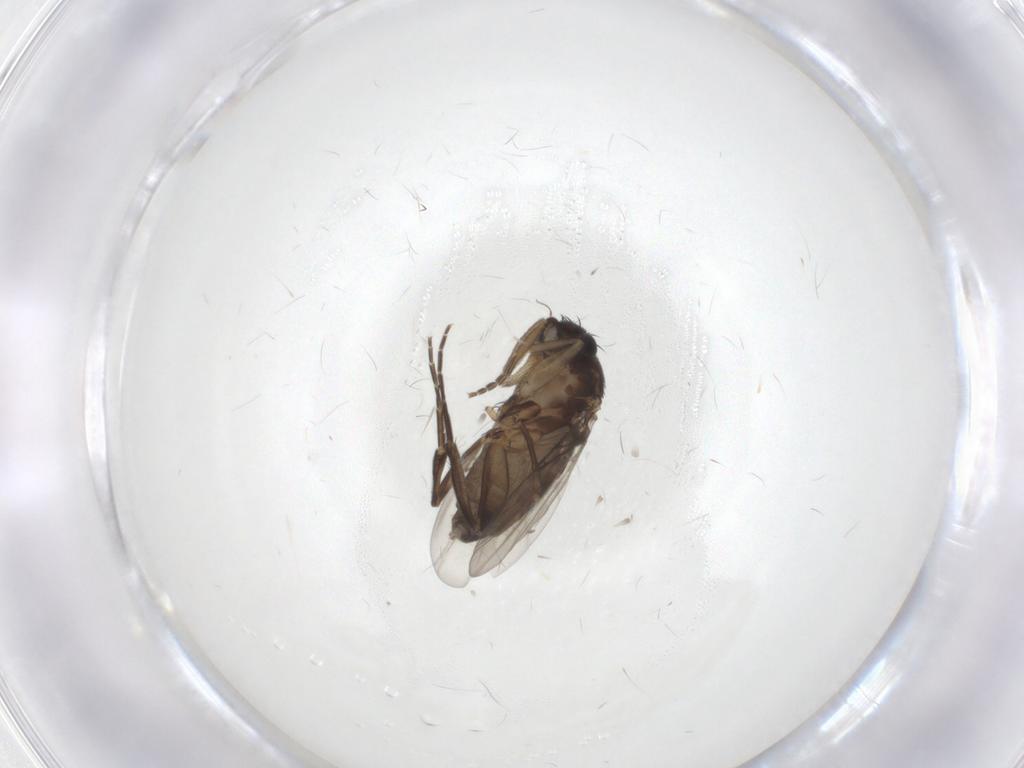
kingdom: Animalia
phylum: Arthropoda
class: Insecta
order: Diptera
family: Phoridae
